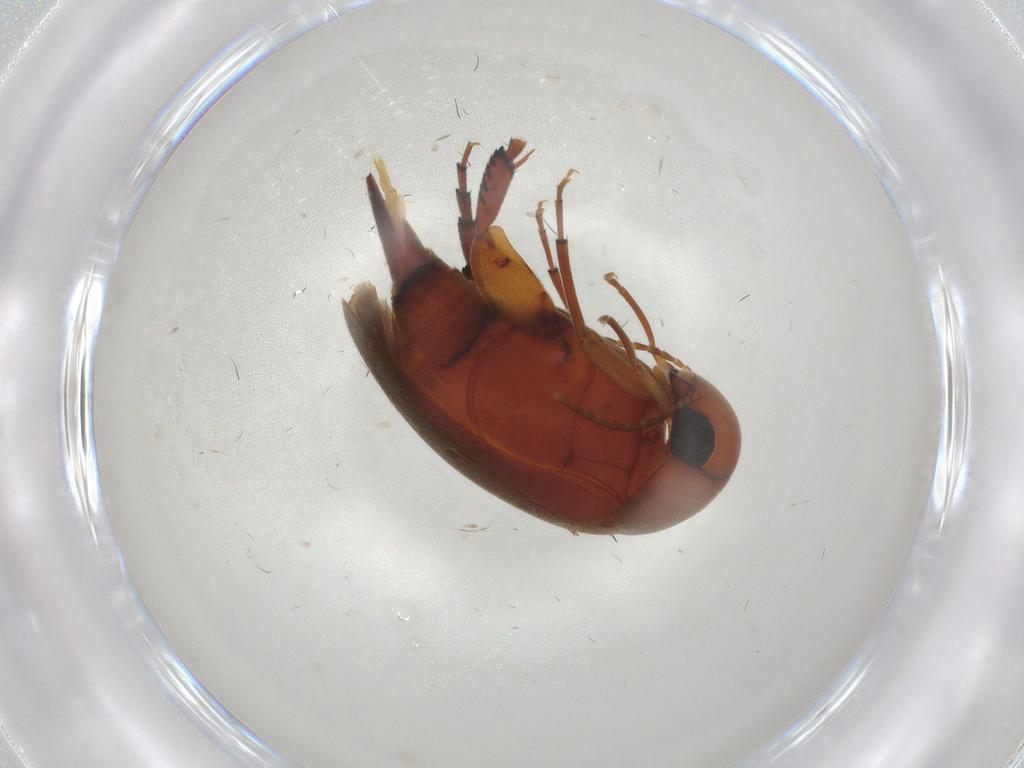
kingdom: Animalia
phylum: Arthropoda
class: Insecta
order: Coleoptera
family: Mordellidae
